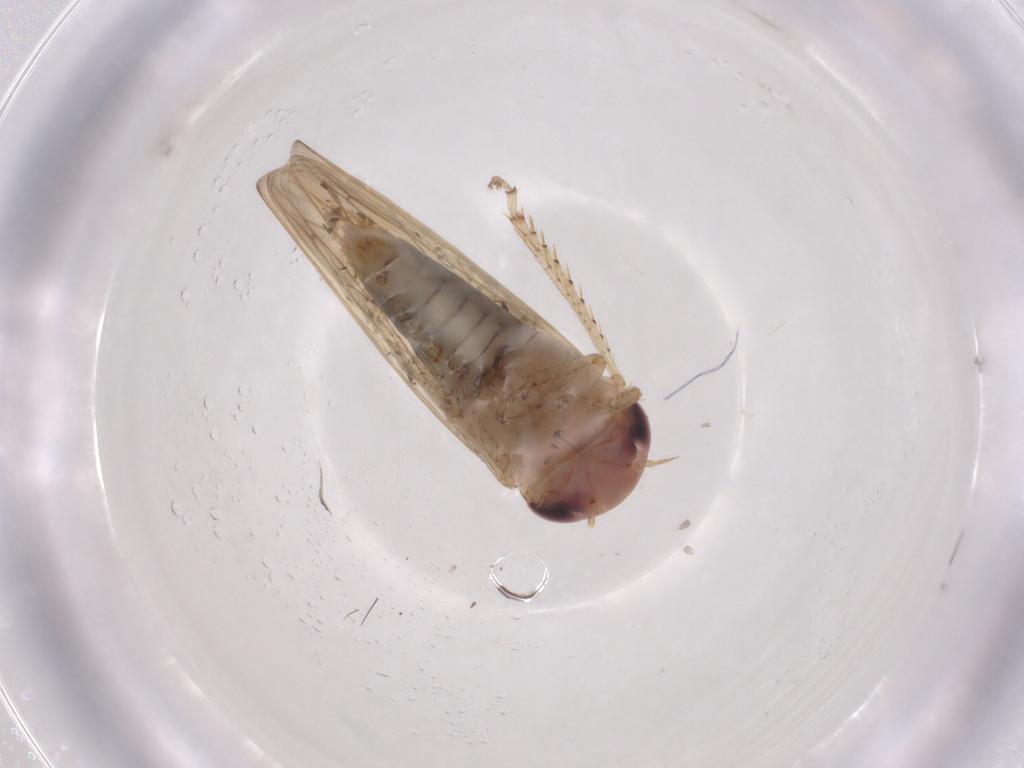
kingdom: Animalia
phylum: Arthropoda
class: Insecta
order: Hemiptera
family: Cicadellidae
